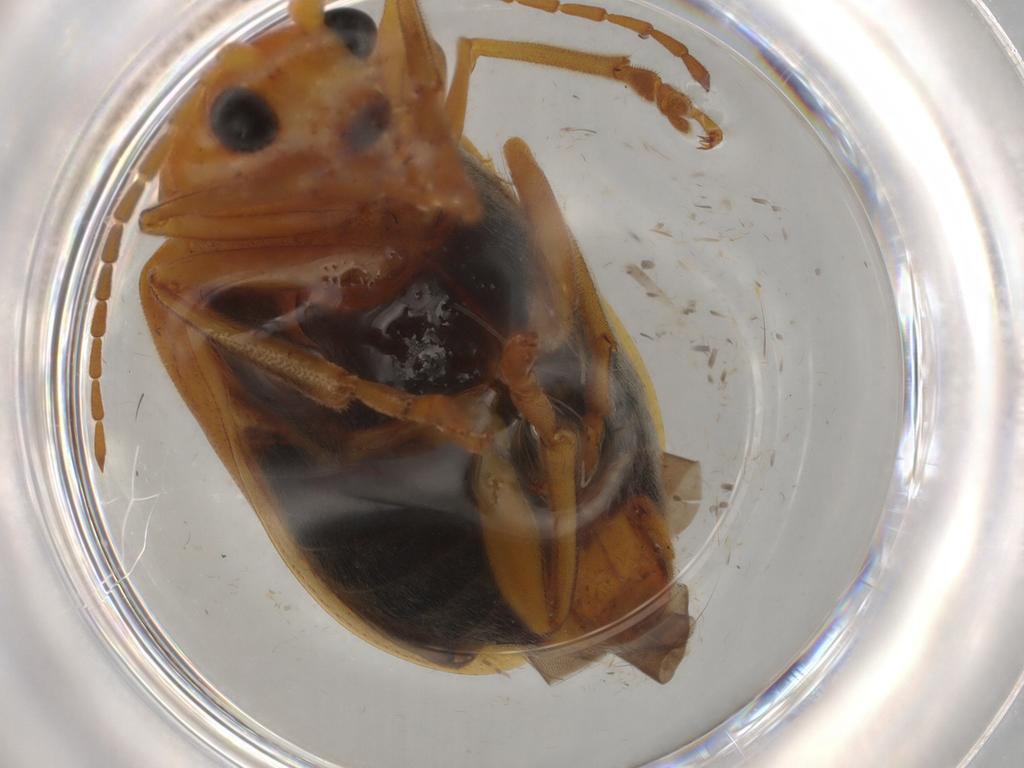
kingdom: Animalia
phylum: Arthropoda
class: Insecta
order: Coleoptera
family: Chrysomelidae
